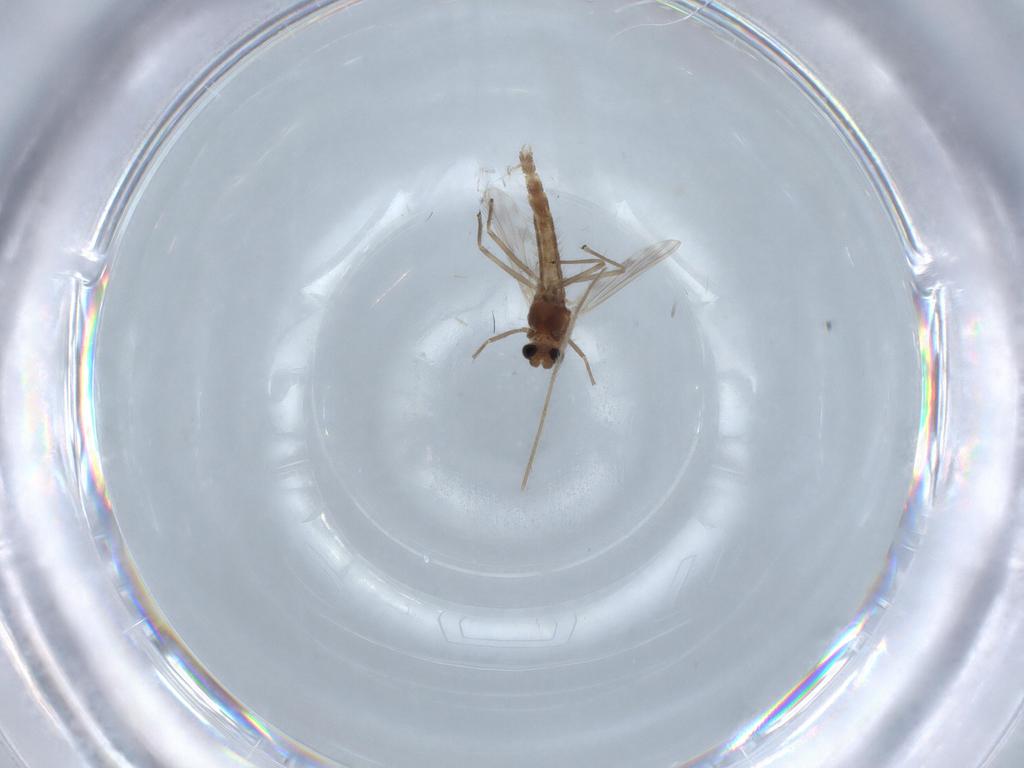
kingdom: Animalia
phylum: Arthropoda
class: Insecta
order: Diptera
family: Chironomidae
